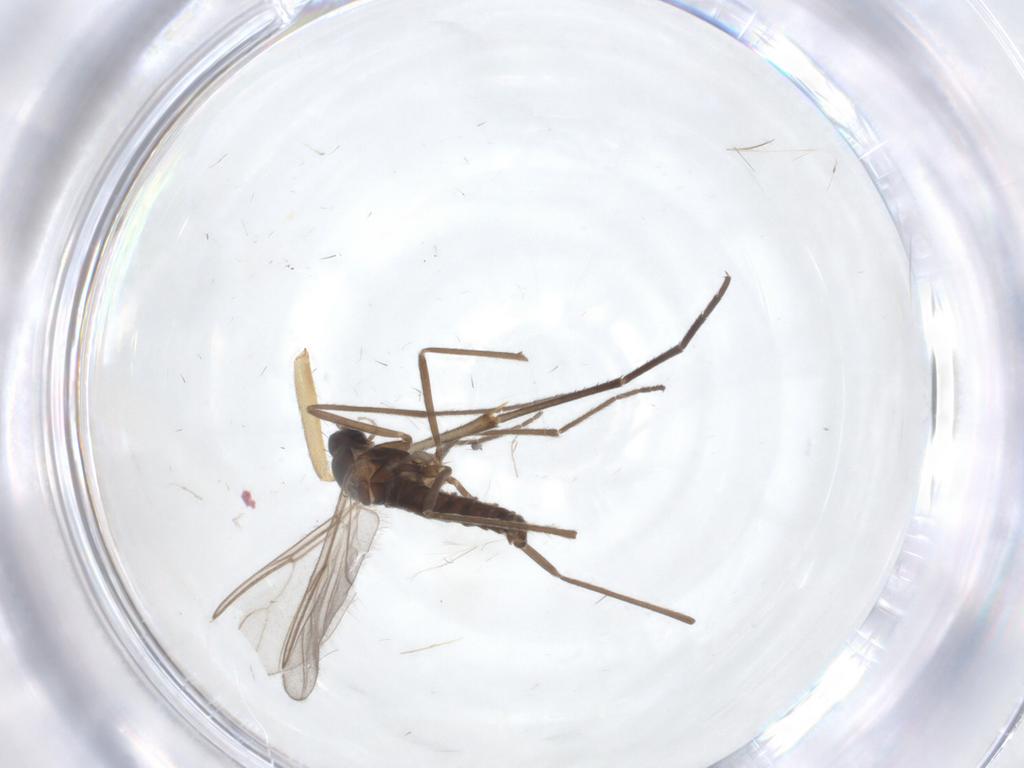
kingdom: Animalia
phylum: Arthropoda
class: Insecta
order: Diptera
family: Cecidomyiidae
